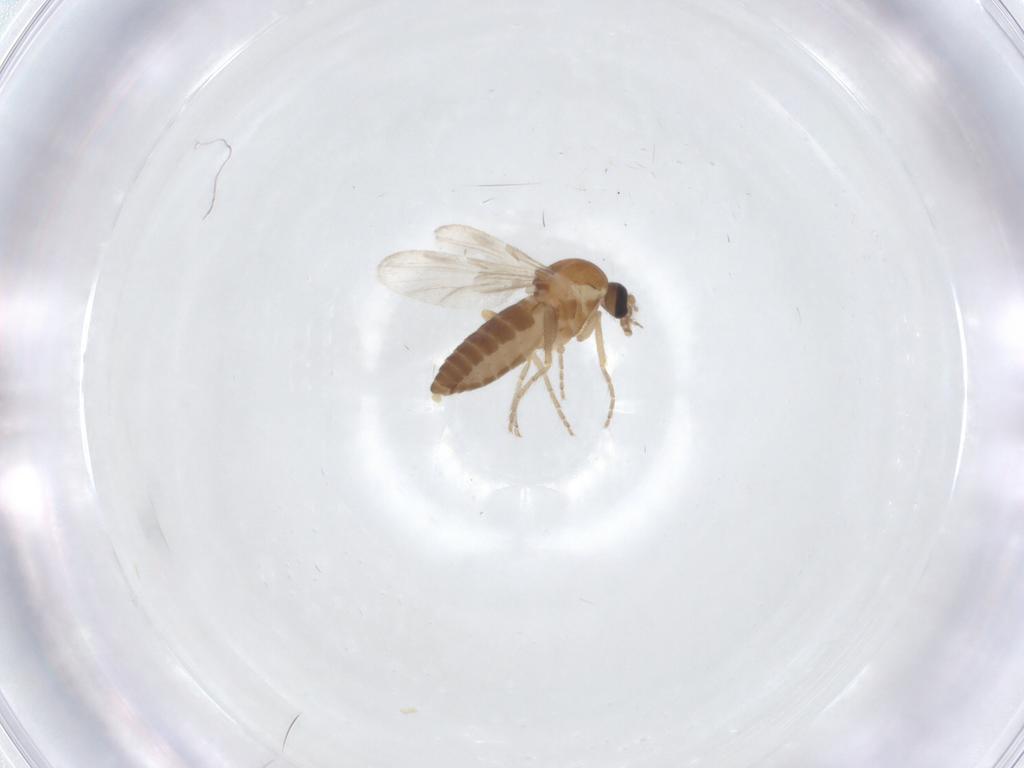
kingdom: Animalia
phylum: Arthropoda
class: Insecta
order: Diptera
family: Ceratopogonidae
